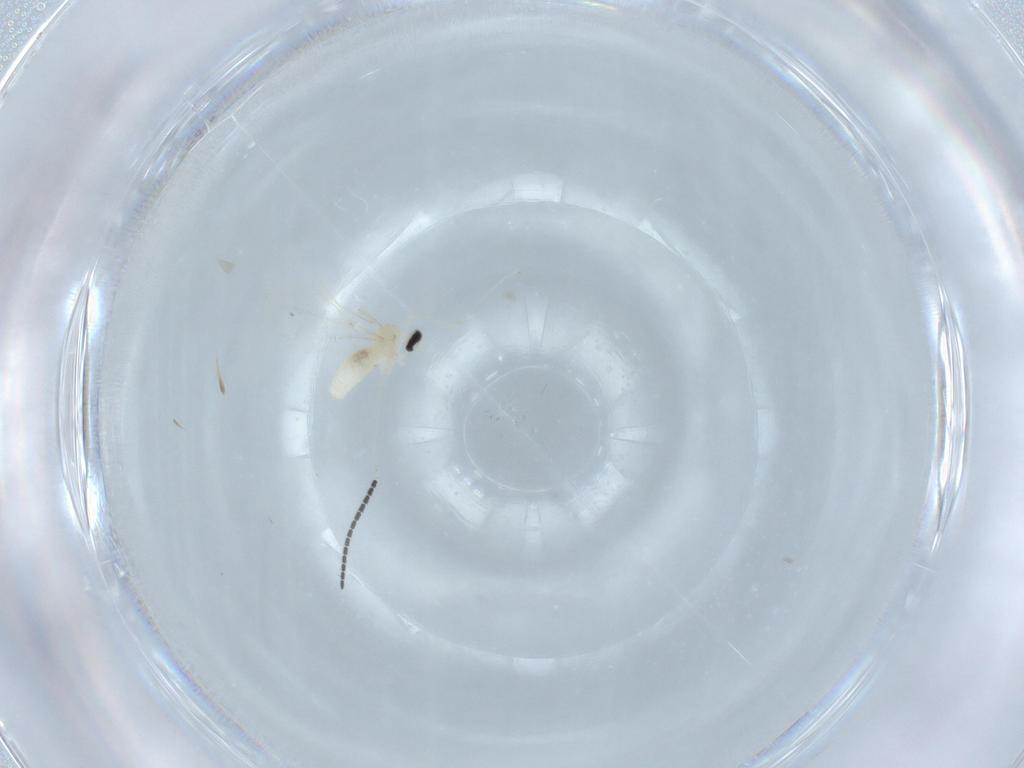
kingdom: Animalia
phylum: Arthropoda
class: Insecta
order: Diptera
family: Cecidomyiidae
